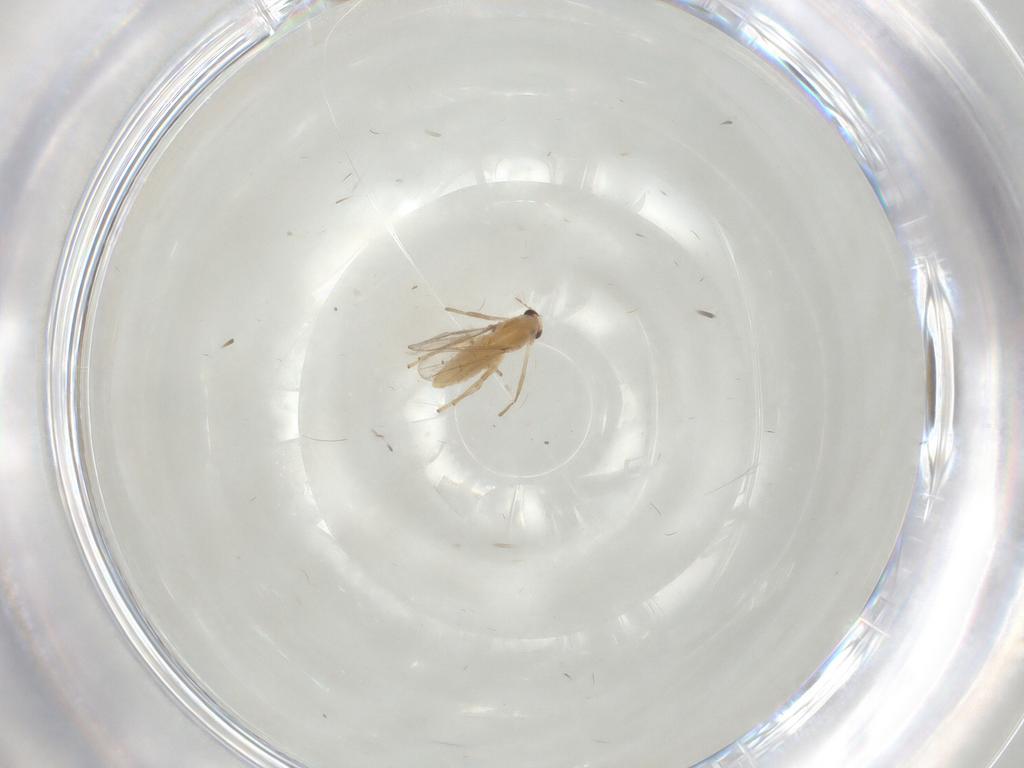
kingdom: Animalia
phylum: Arthropoda
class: Insecta
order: Diptera
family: Chironomidae
